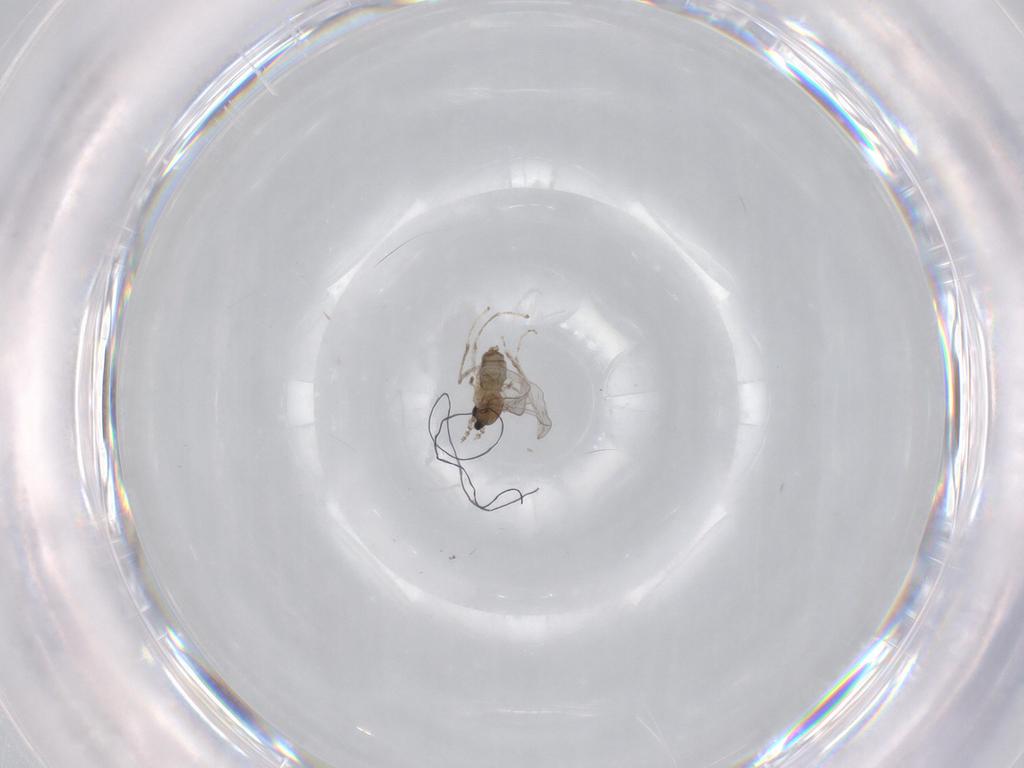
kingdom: Animalia
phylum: Arthropoda
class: Insecta
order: Diptera
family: Cecidomyiidae
